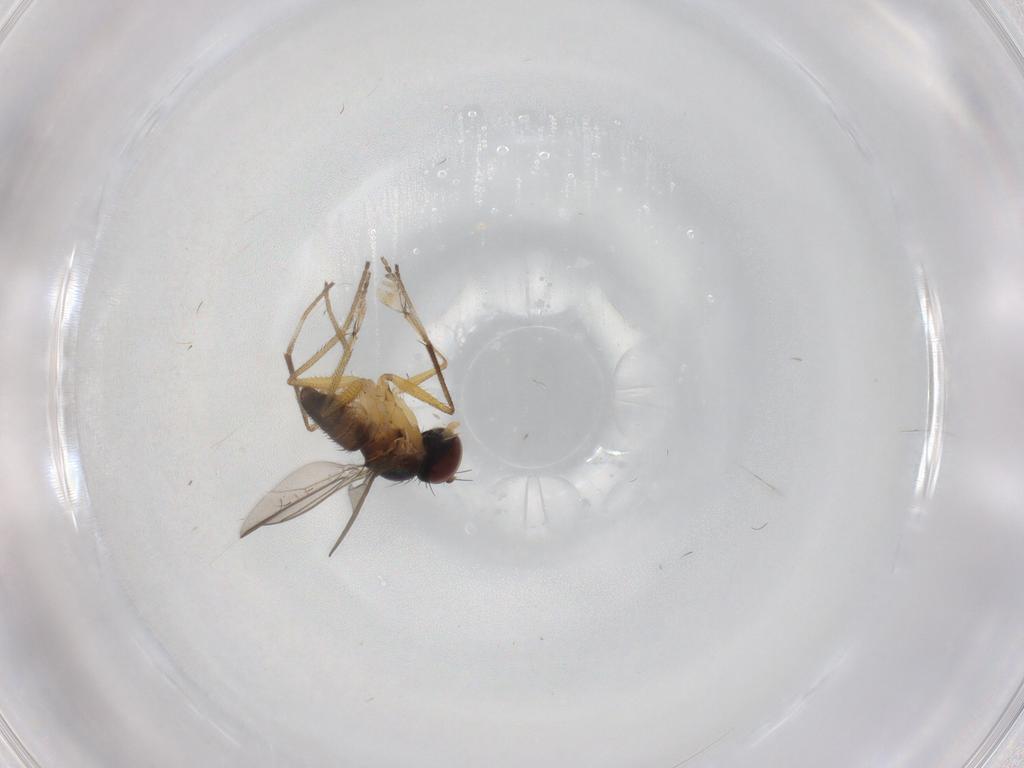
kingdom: Animalia
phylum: Arthropoda
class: Insecta
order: Diptera
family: Dolichopodidae
